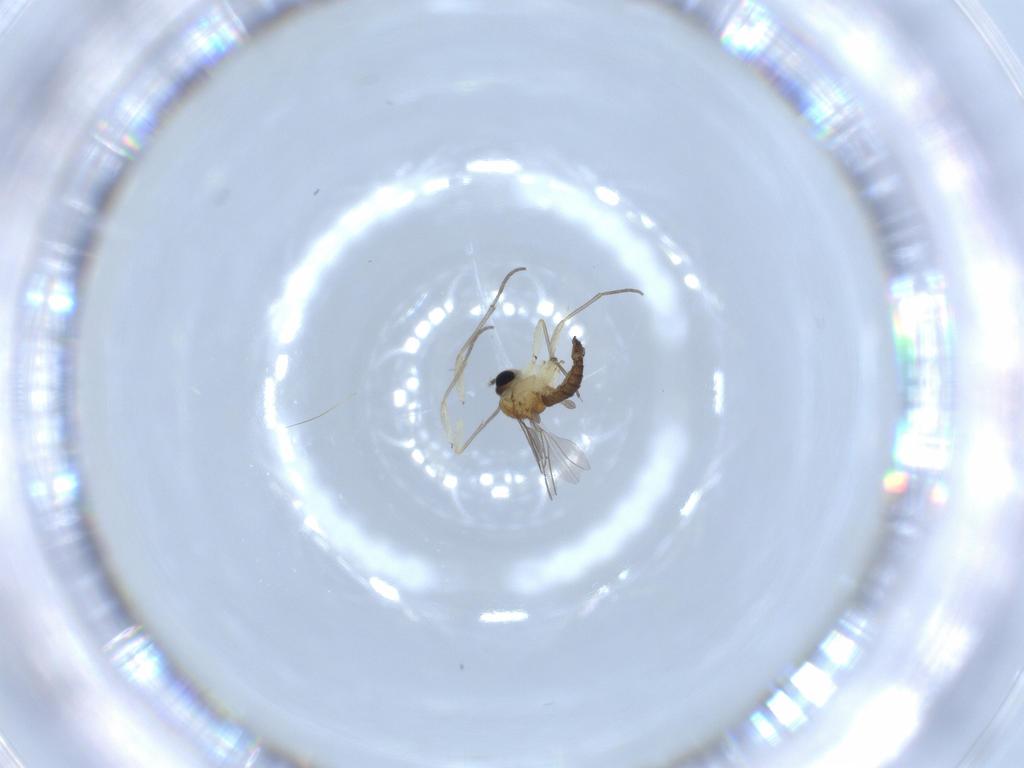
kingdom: Animalia
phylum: Arthropoda
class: Insecta
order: Diptera
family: Sciaridae
